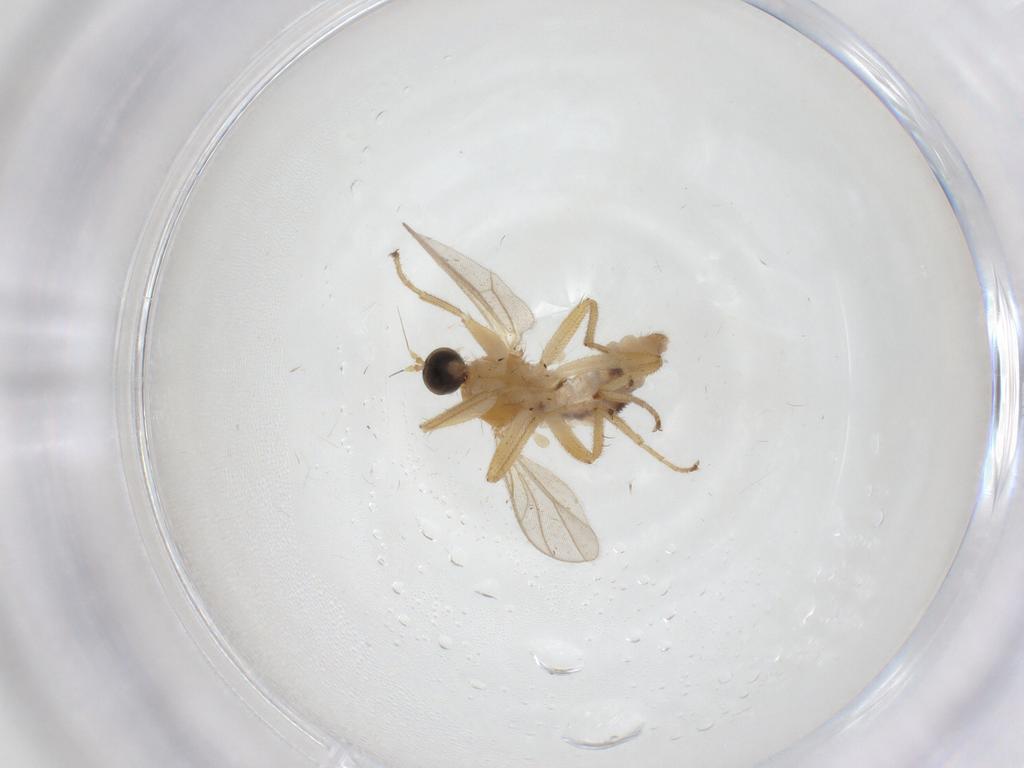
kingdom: Animalia
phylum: Arthropoda
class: Insecta
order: Diptera
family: Hybotidae
